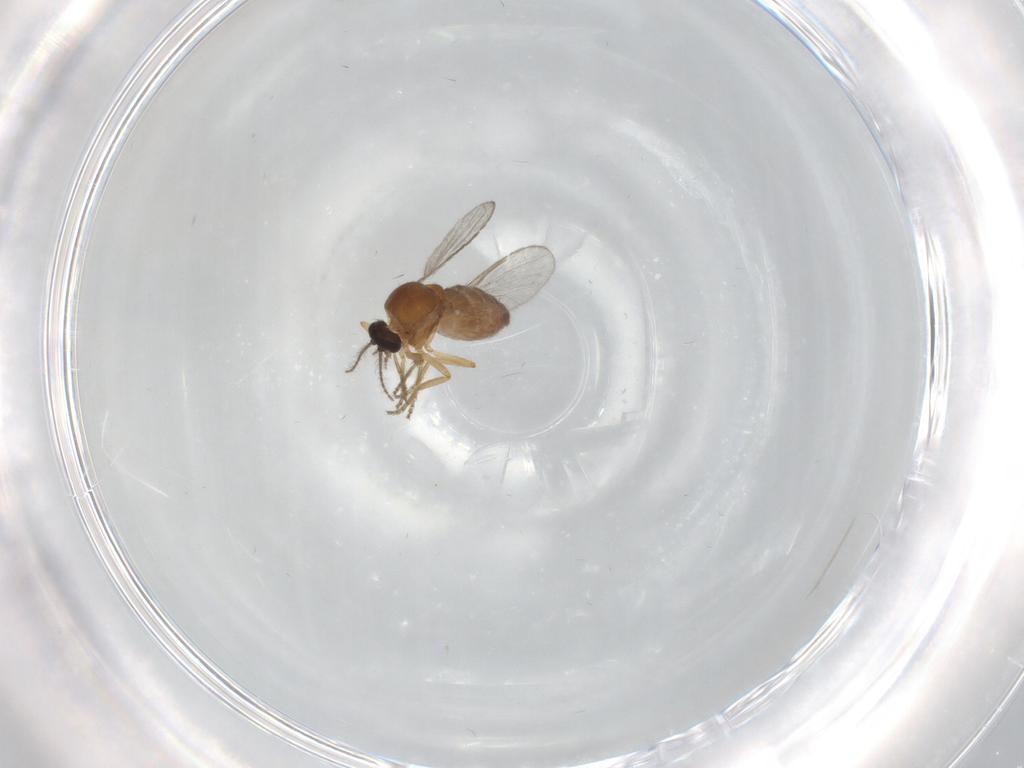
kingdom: Animalia
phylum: Arthropoda
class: Insecta
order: Diptera
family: Ceratopogonidae
